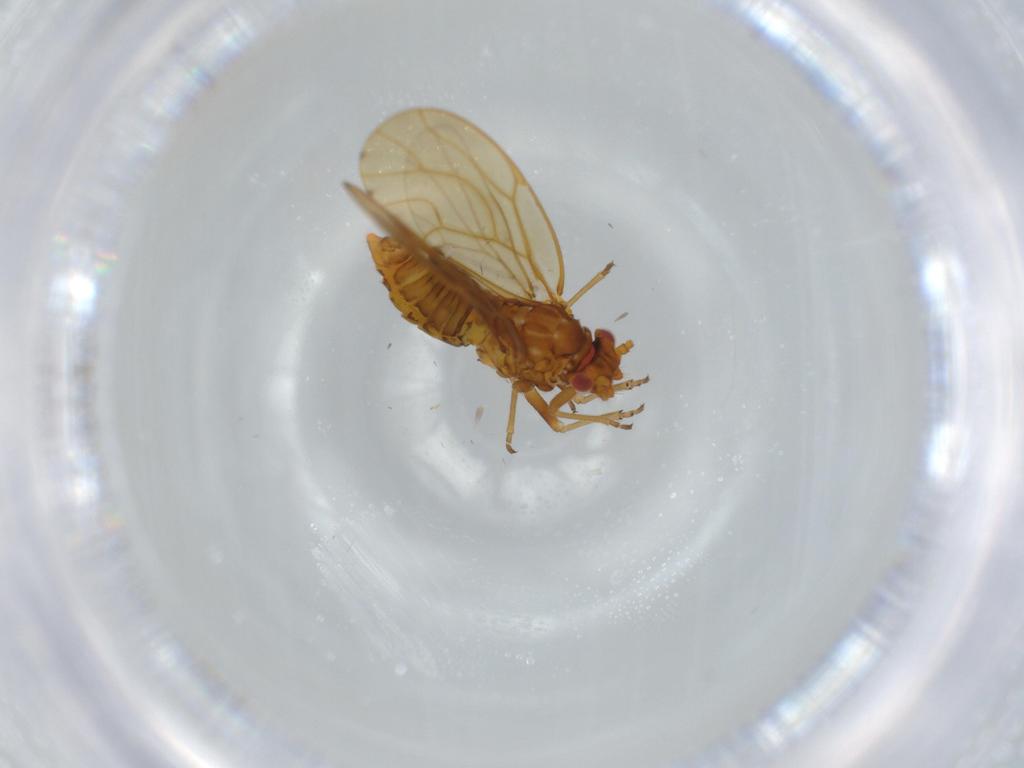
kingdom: Animalia
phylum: Arthropoda
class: Insecta
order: Hemiptera
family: Psylloidea_incertae_sedis
